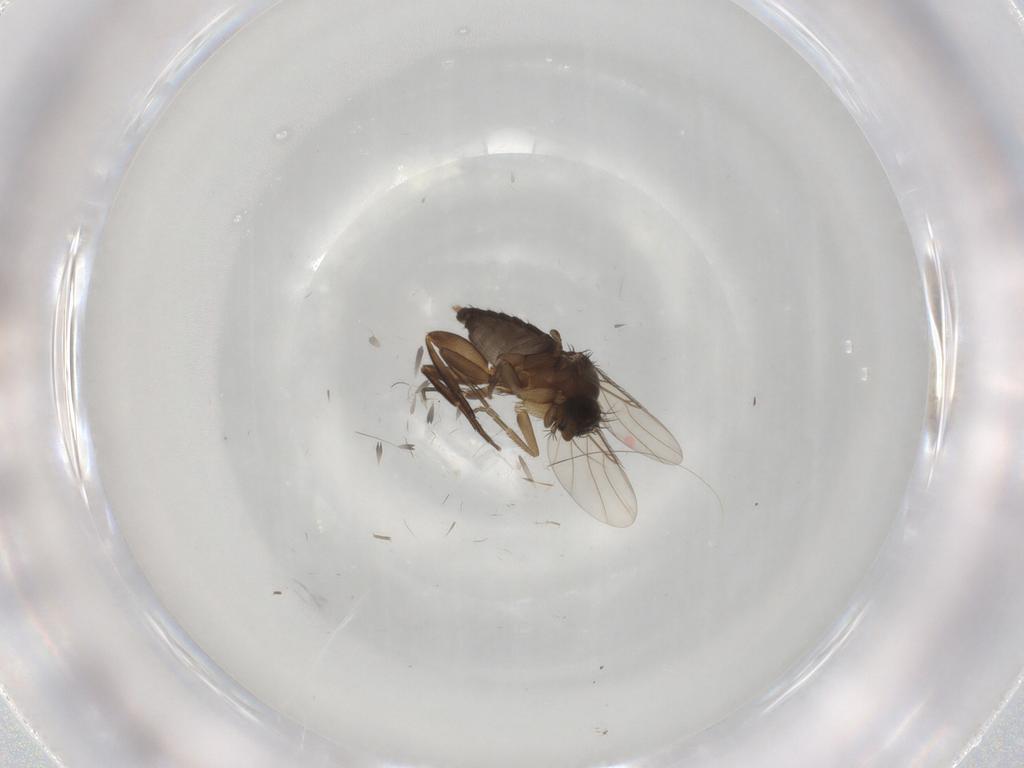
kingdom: Animalia
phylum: Arthropoda
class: Insecta
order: Diptera
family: Phoridae
